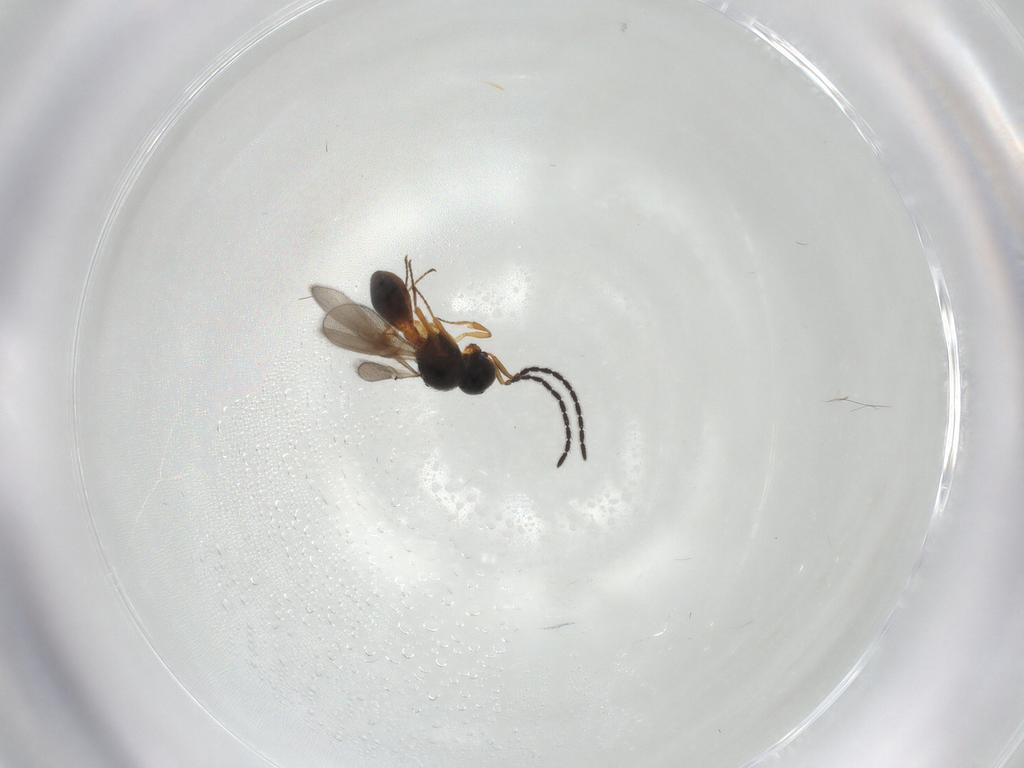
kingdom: Animalia
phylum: Arthropoda
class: Insecta
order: Hymenoptera
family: Scelionidae
